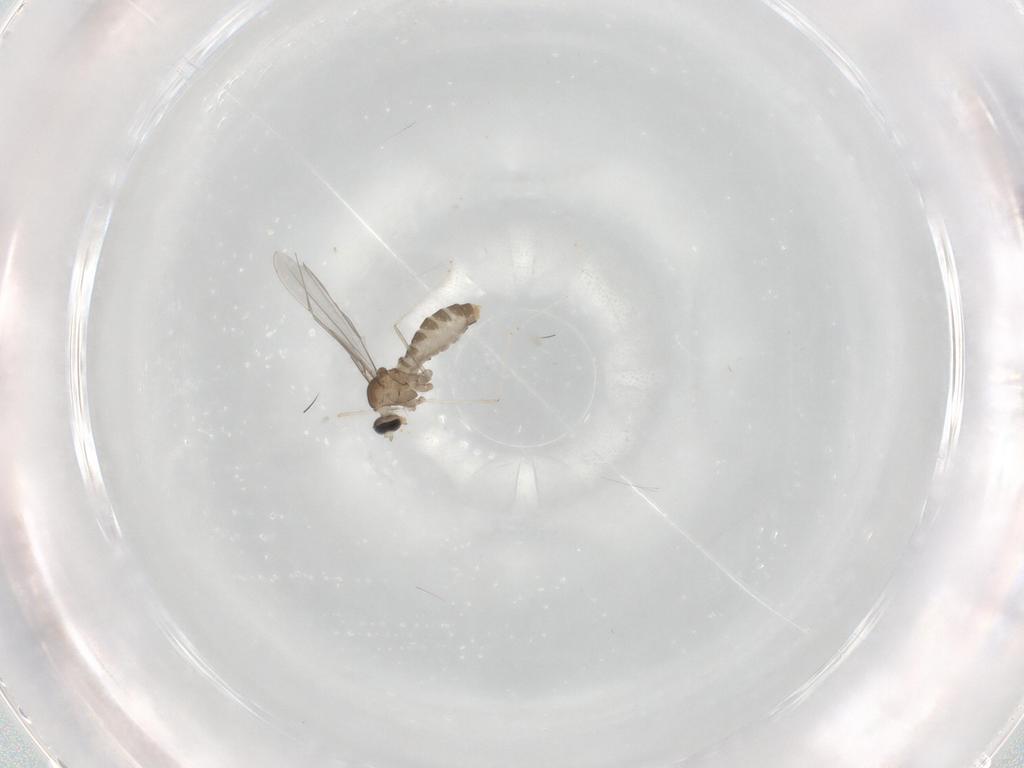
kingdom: Animalia
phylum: Arthropoda
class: Insecta
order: Diptera
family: Cecidomyiidae
